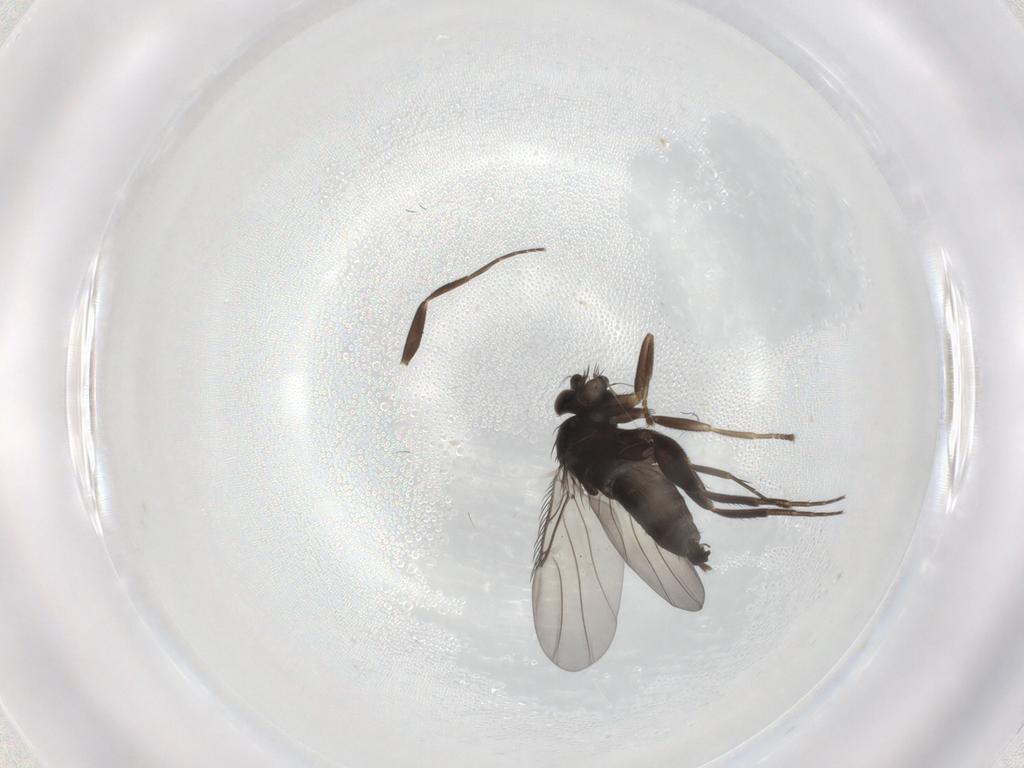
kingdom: Animalia
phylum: Arthropoda
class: Insecta
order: Diptera
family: Phoridae
